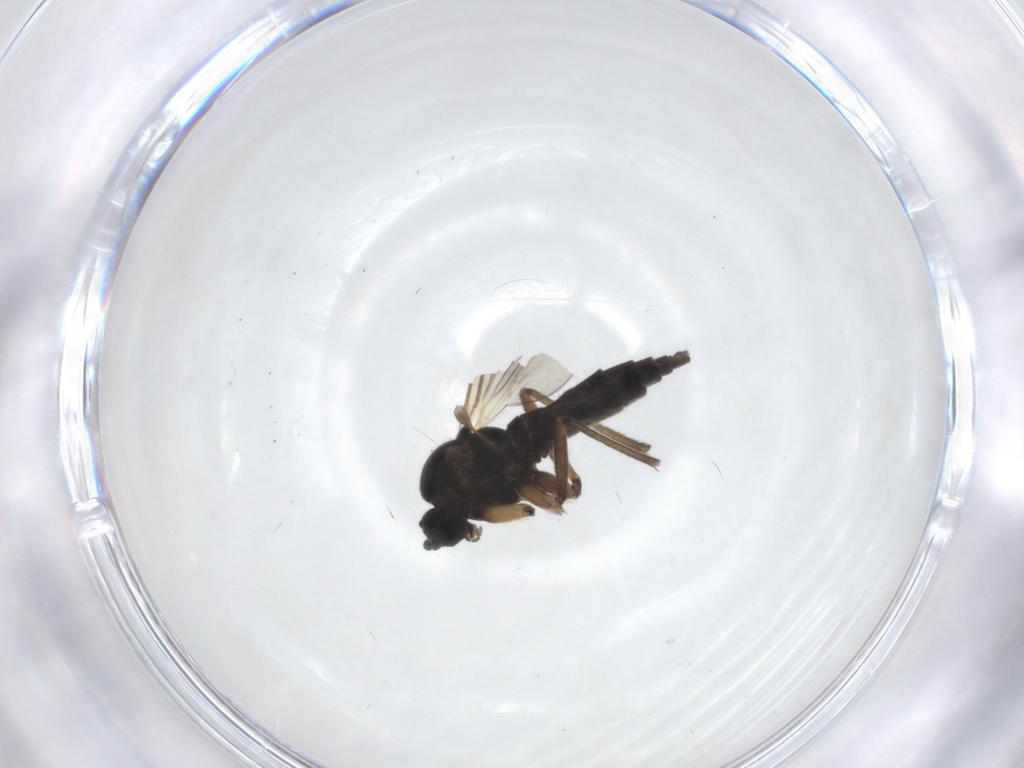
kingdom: Animalia
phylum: Arthropoda
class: Insecta
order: Diptera
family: Sciaridae
